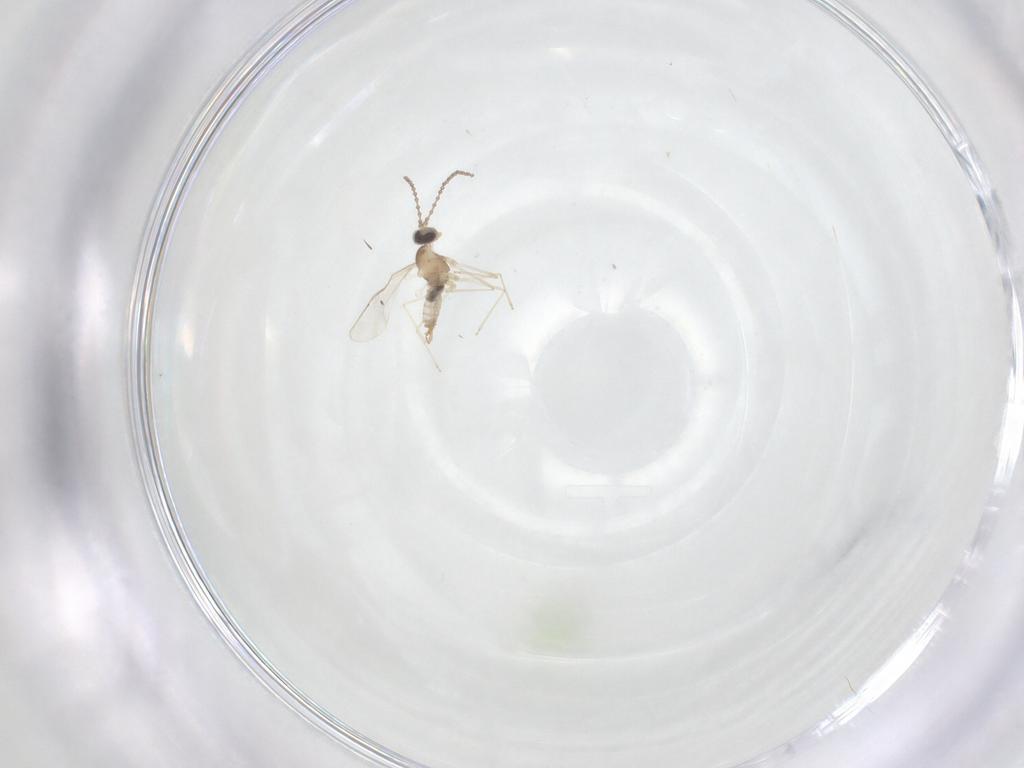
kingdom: Animalia
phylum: Arthropoda
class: Insecta
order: Diptera
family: Cecidomyiidae
